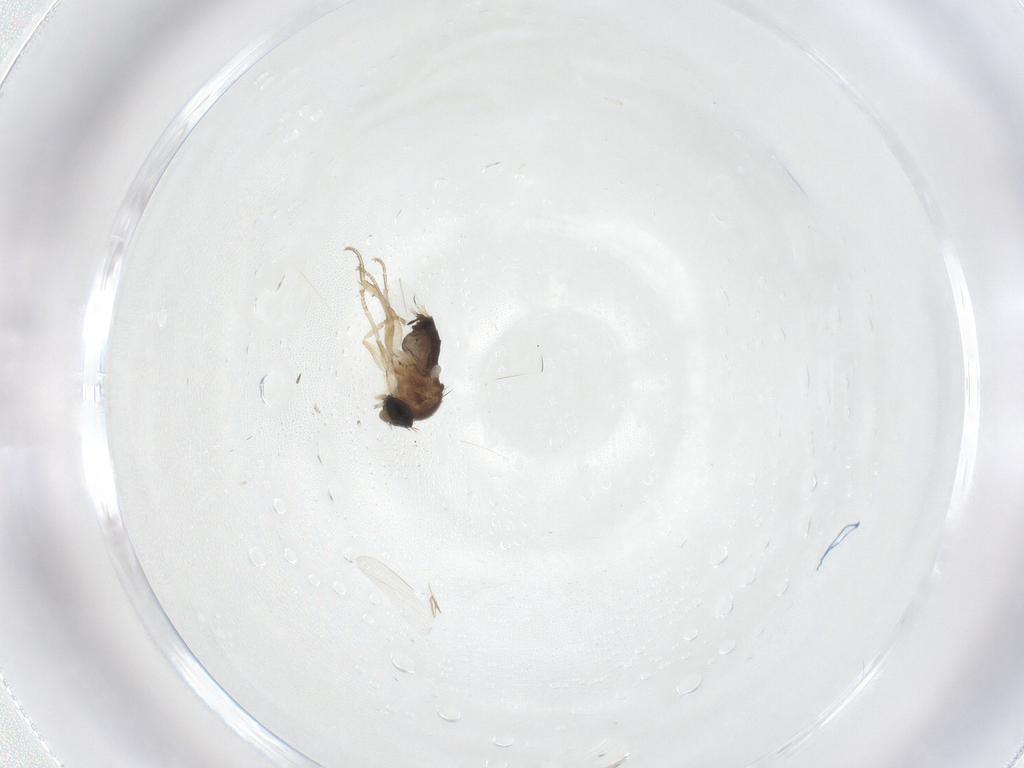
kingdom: Animalia
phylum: Arthropoda
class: Insecta
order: Diptera
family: Phoridae
